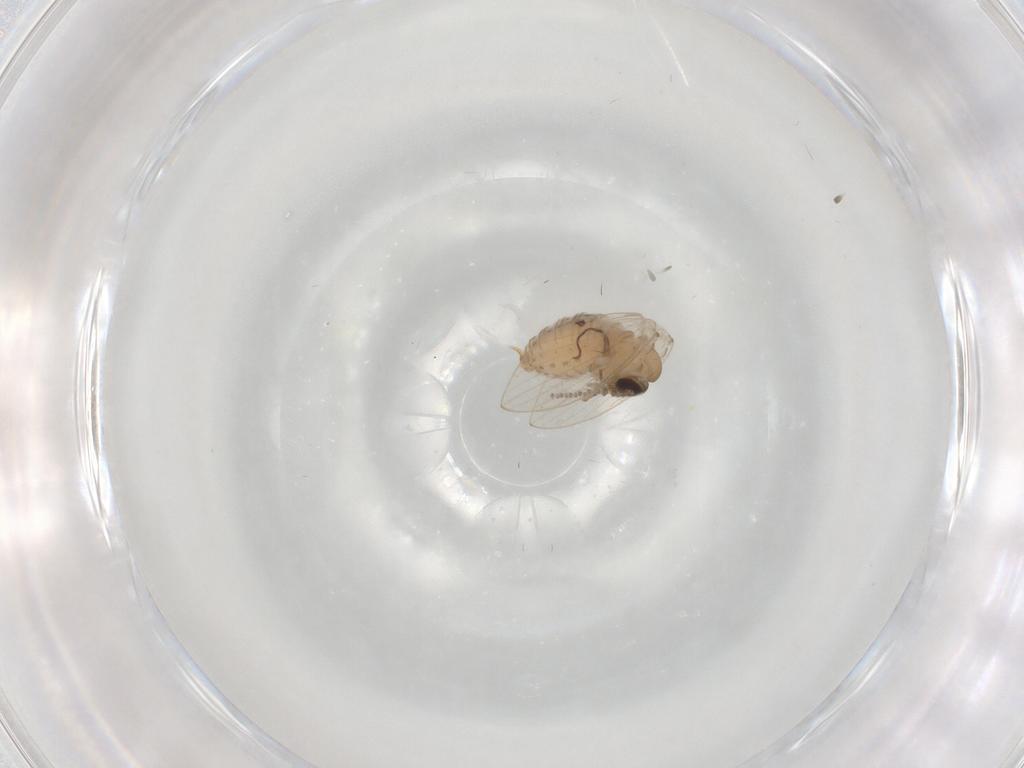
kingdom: Animalia
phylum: Arthropoda
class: Insecta
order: Diptera
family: Psychodidae
